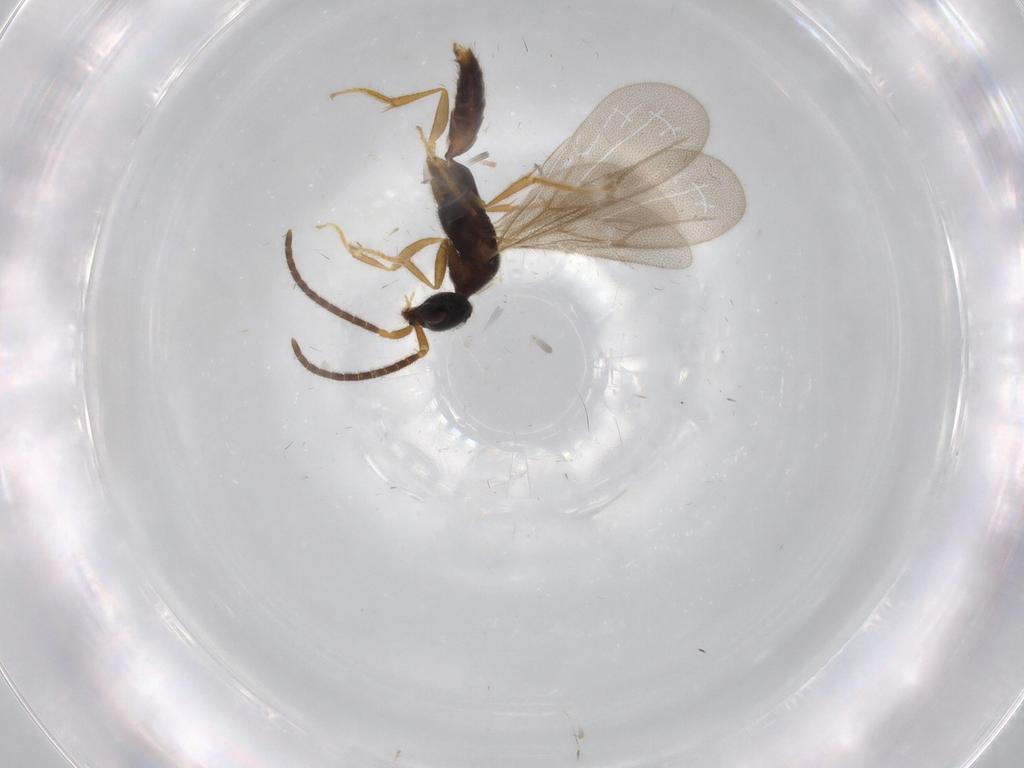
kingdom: Animalia
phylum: Arthropoda
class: Insecta
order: Hymenoptera
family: Bethylidae
